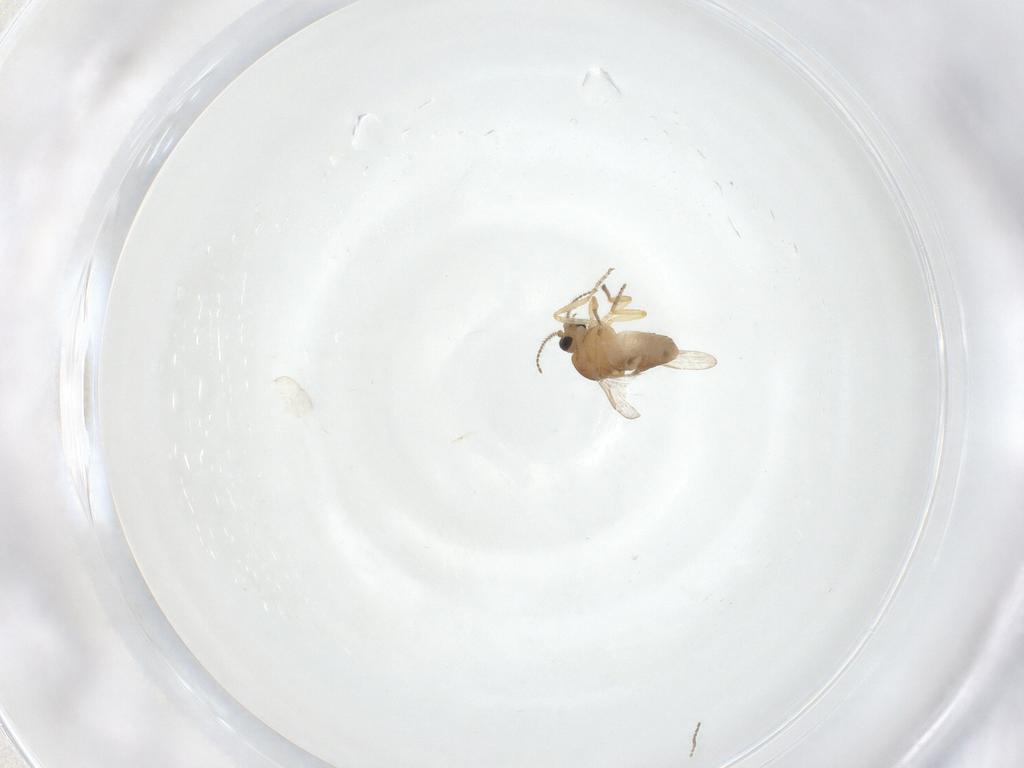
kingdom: Animalia
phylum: Arthropoda
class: Insecta
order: Diptera
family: Ceratopogonidae
